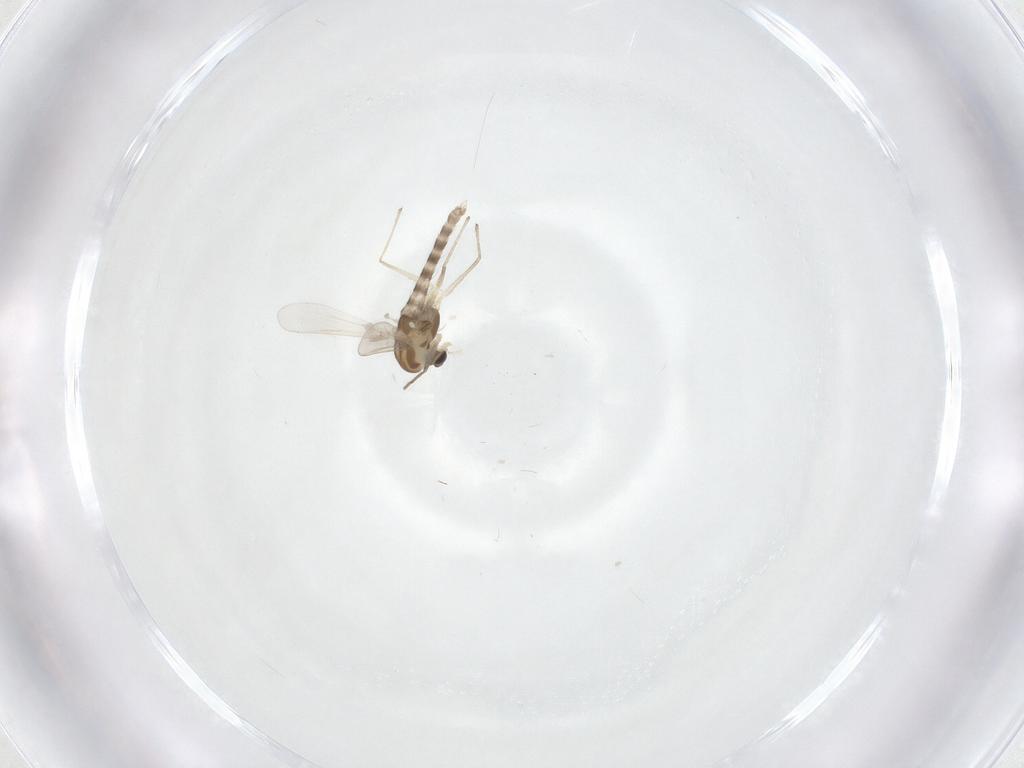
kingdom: Animalia
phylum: Arthropoda
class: Insecta
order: Diptera
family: Chironomidae
